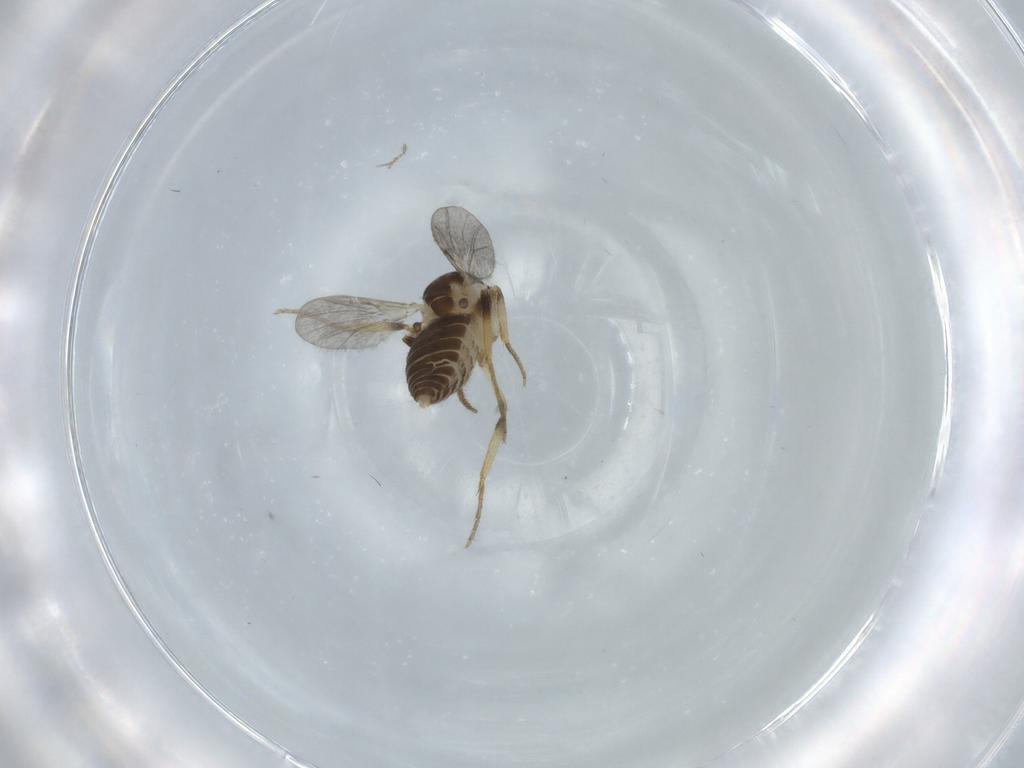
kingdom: Animalia
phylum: Arthropoda
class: Insecta
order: Diptera
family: Ceratopogonidae
